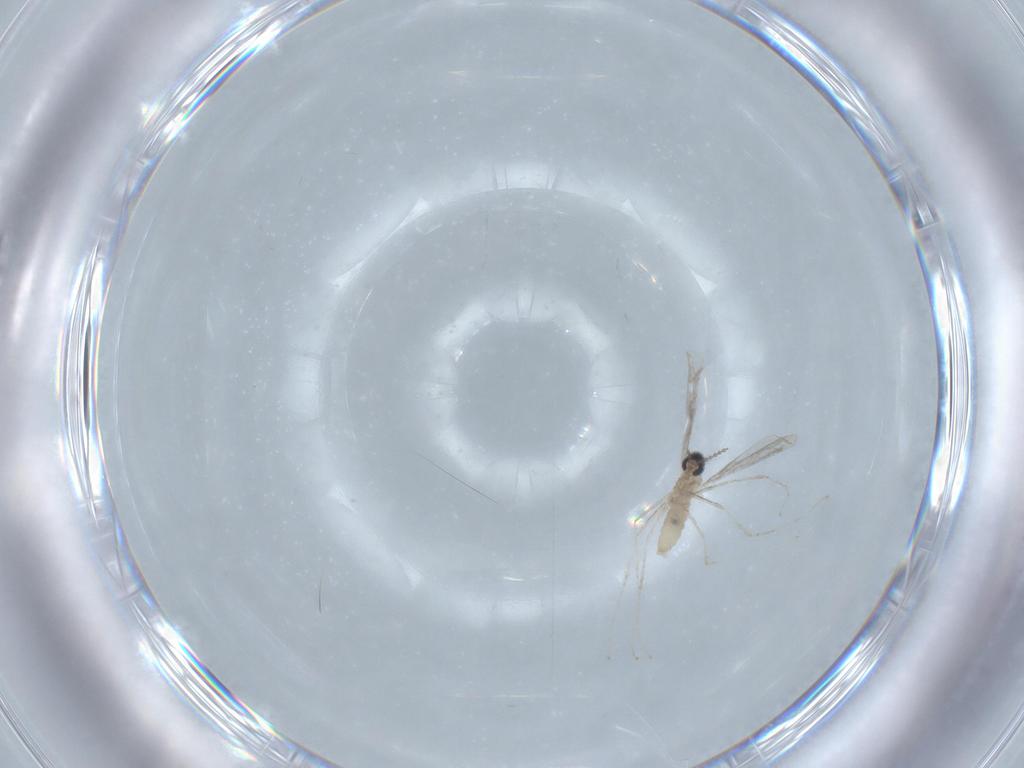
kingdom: Animalia
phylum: Arthropoda
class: Insecta
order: Diptera
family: Cecidomyiidae
